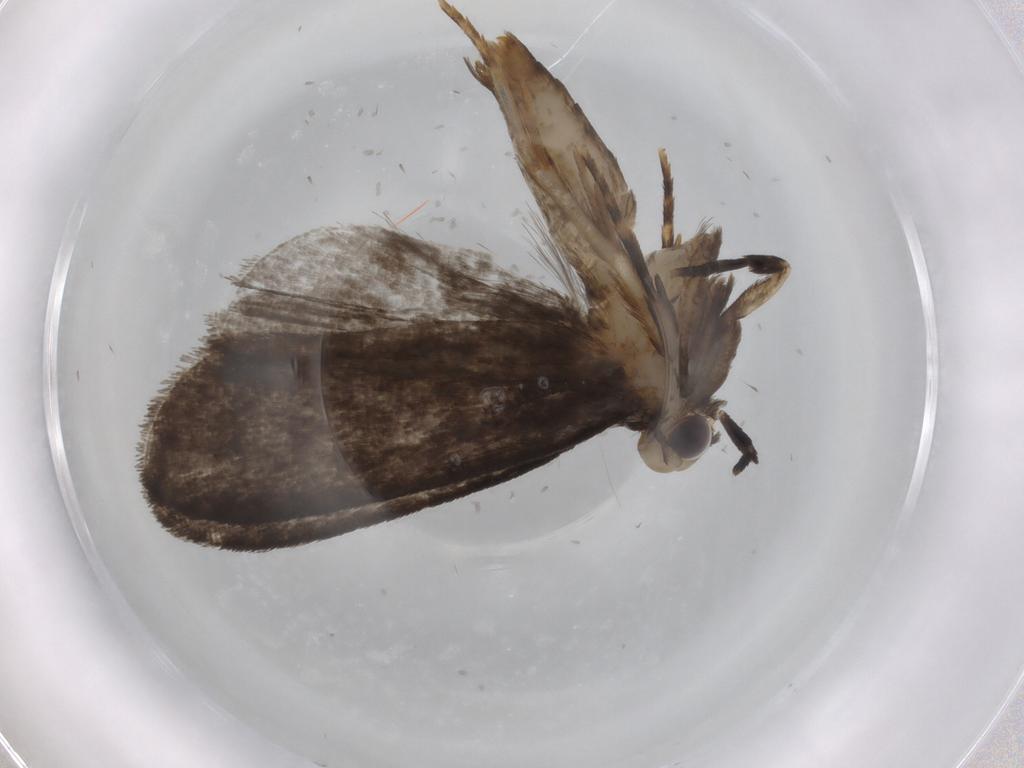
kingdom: Animalia
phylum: Arthropoda
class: Insecta
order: Lepidoptera
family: Tineidae
